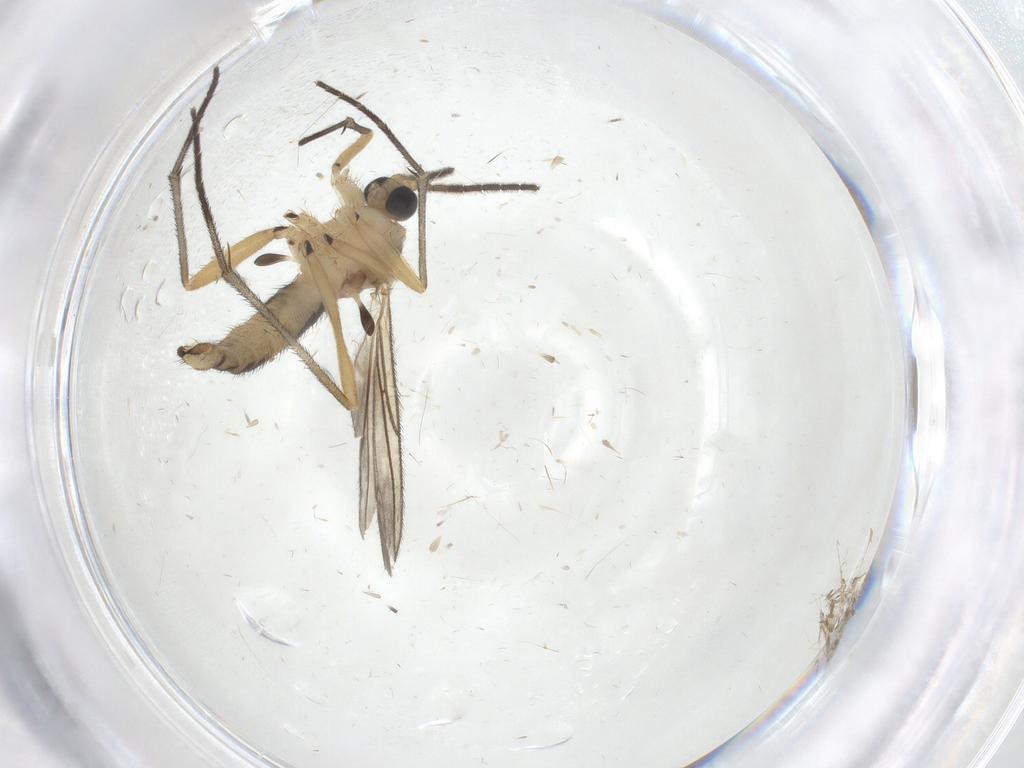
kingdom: Animalia
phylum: Arthropoda
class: Insecta
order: Diptera
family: Sciaridae
